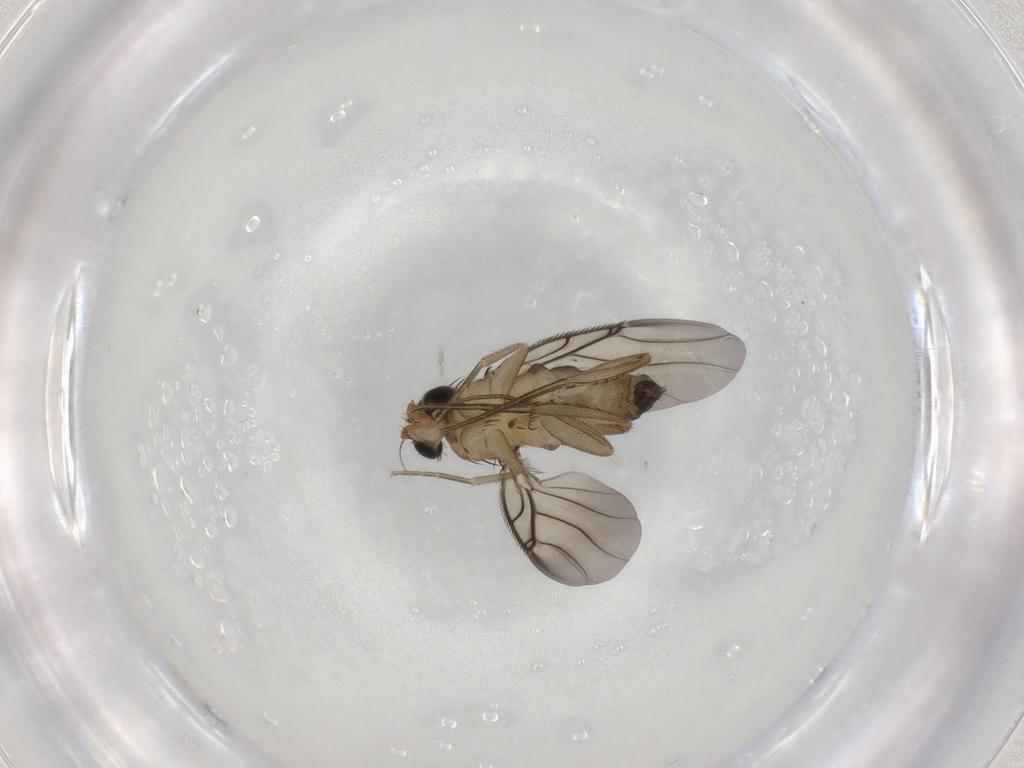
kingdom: Animalia
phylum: Arthropoda
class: Insecta
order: Diptera
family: Phoridae
